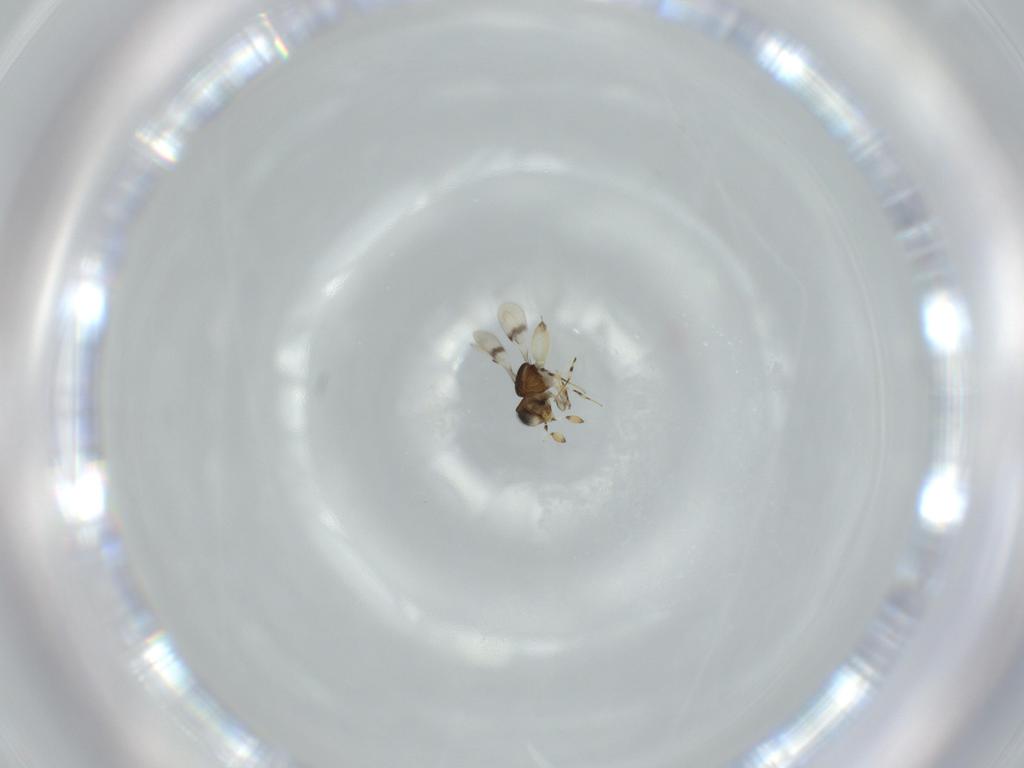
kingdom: Animalia
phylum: Arthropoda
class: Insecta
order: Hymenoptera
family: Scelionidae
